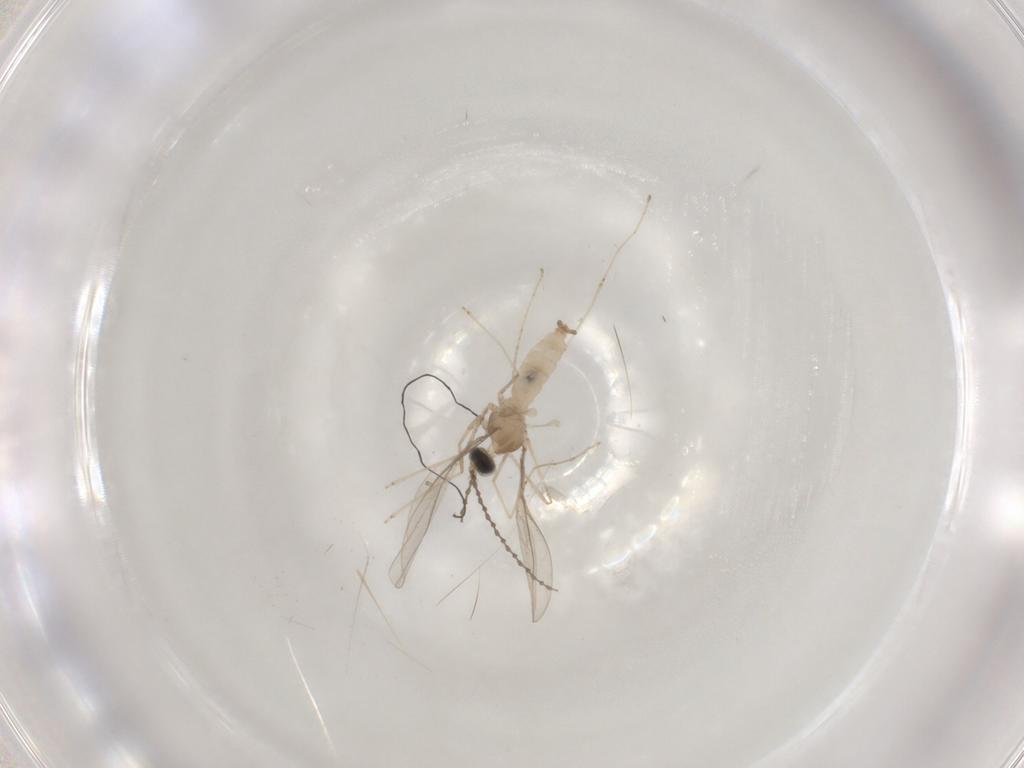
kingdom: Animalia
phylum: Arthropoda
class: Insecta
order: Diptera
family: Cecidomyiidae
